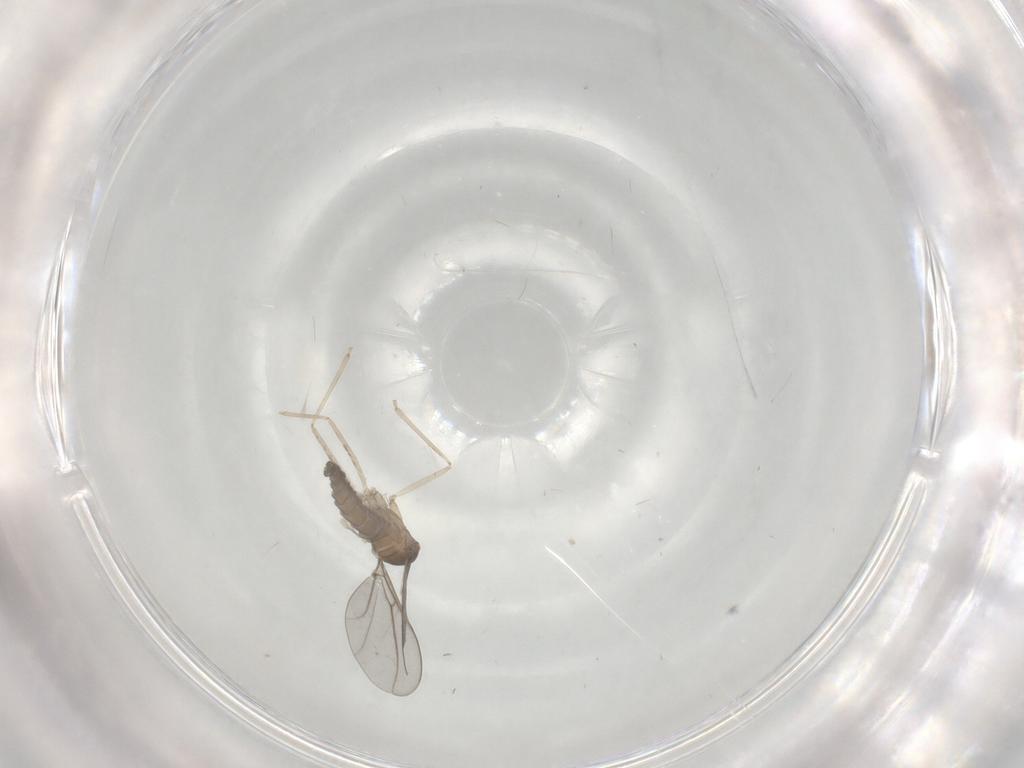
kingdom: Animalia
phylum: Arthropoda
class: Insecta
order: Diptera
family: Cecidomyiidae
